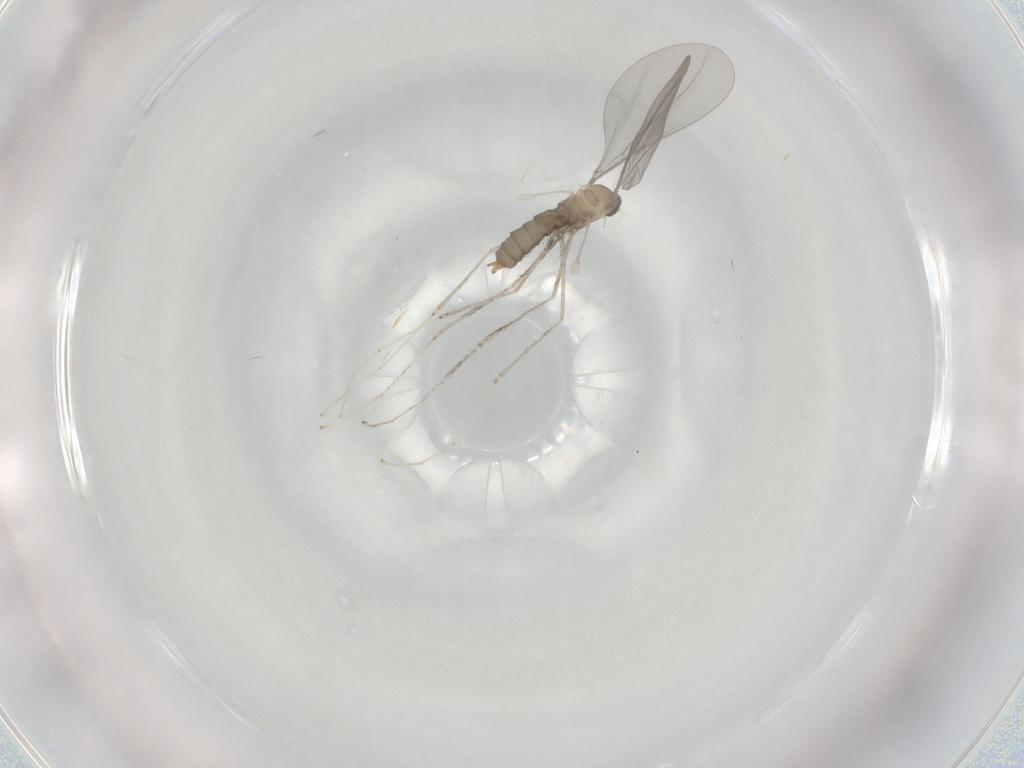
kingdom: Animalia
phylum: Arthropoda
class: Insecta
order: Diptera
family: Cecidomyiidae
